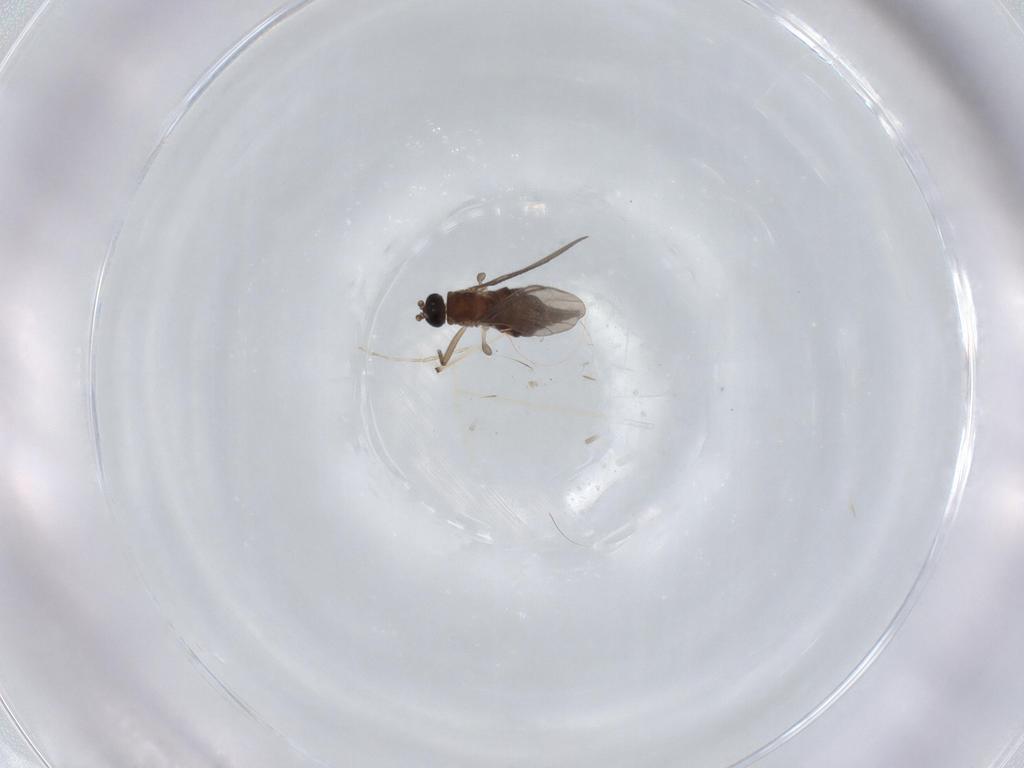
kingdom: Animalia
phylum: Arthropoda
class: Insecta
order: Diptera
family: Sciaridae
